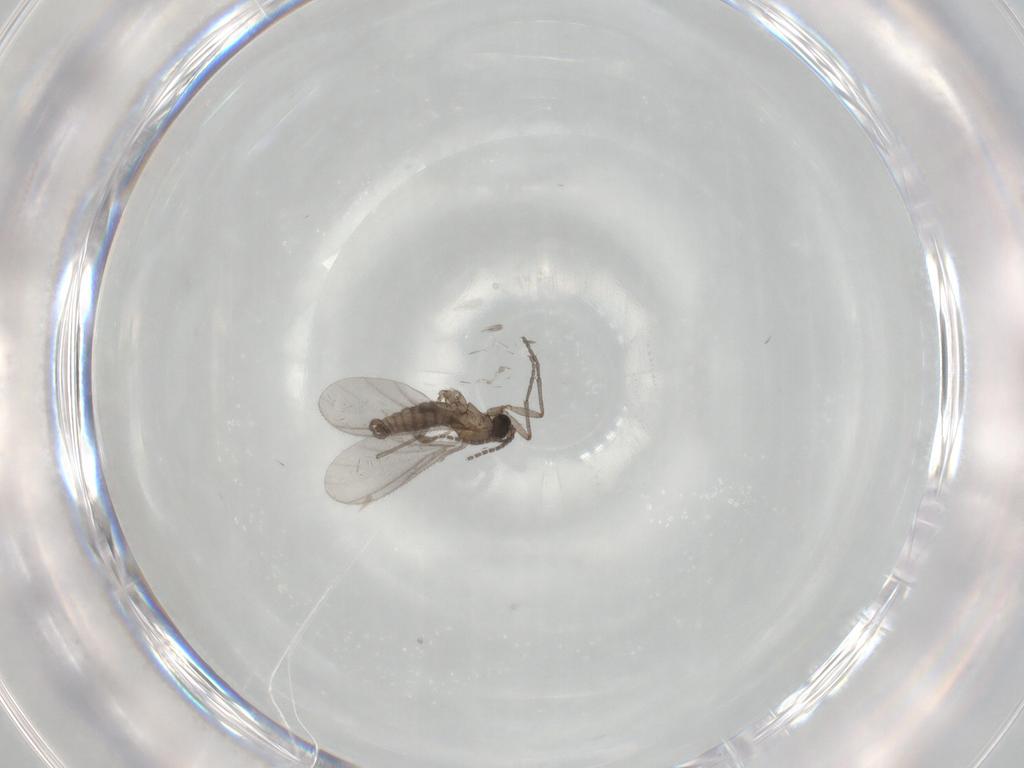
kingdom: Animalia
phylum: Arthropoda
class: Insecta
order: Diptera
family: Sciaridae
